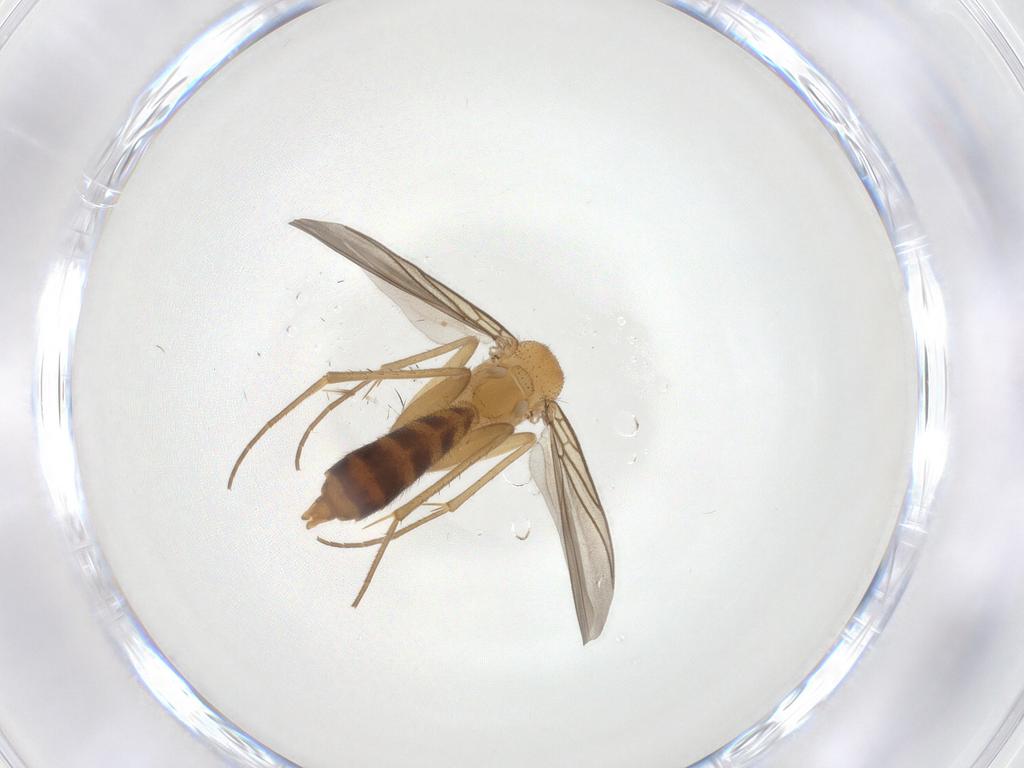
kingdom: Animalia
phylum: Arthropoda
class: Insecta
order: Diptera
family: Mycetophilidae
